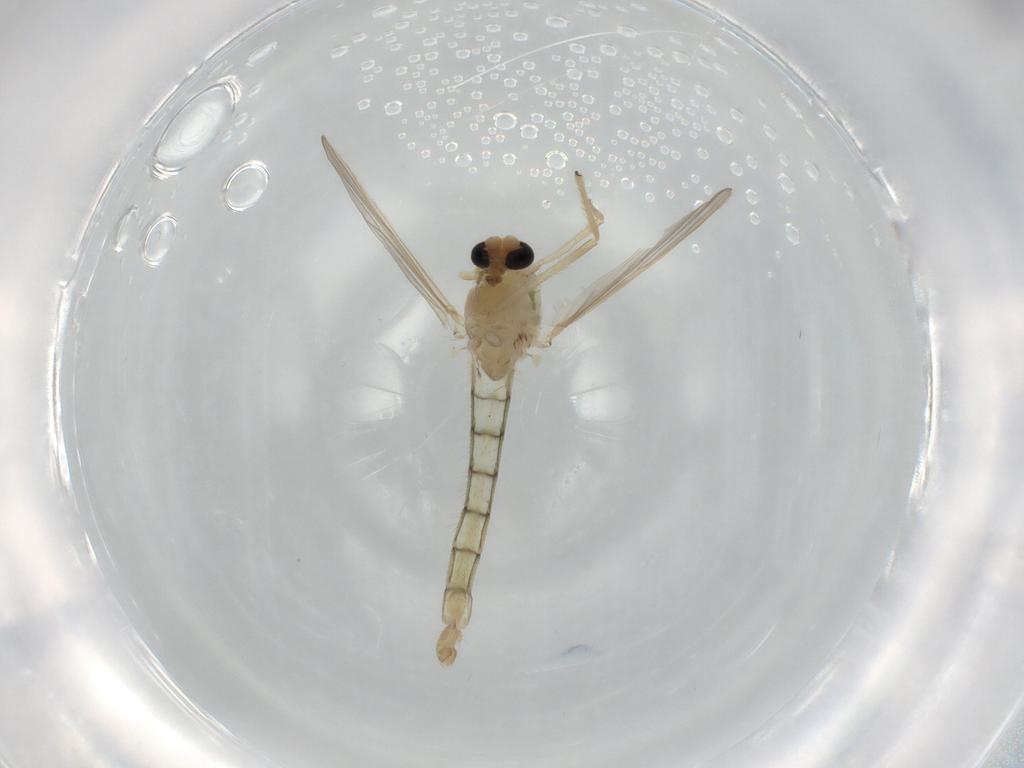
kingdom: Animalia
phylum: Arthropoda
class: Insecta
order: Diptera
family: Chironomidae
